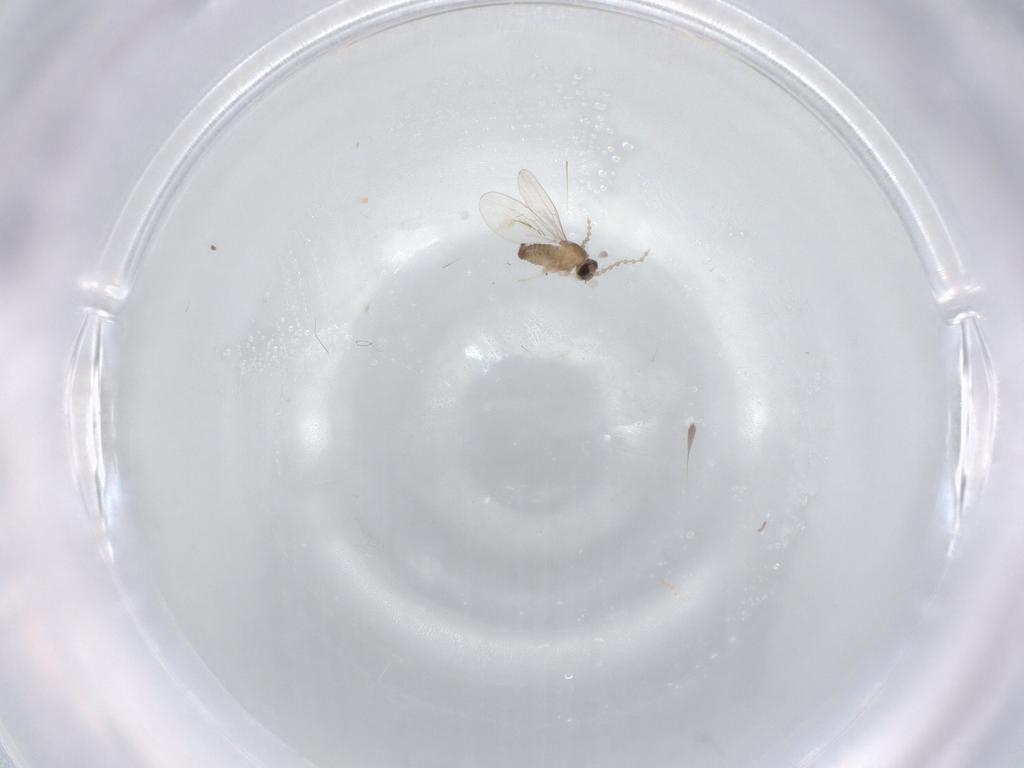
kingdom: Animalia
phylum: Arthropoda
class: Insecta
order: Diptera
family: Cecidomyiidae
